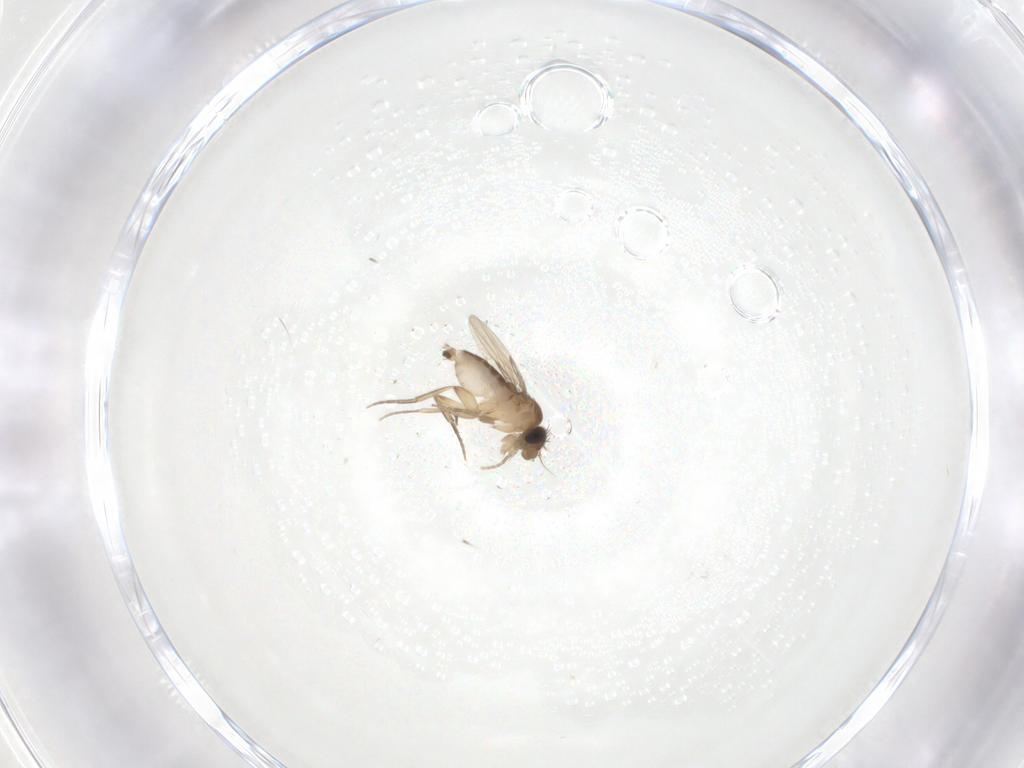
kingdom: Animalia
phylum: Arthropoda
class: Insecta
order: Diptera
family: Phoridae
